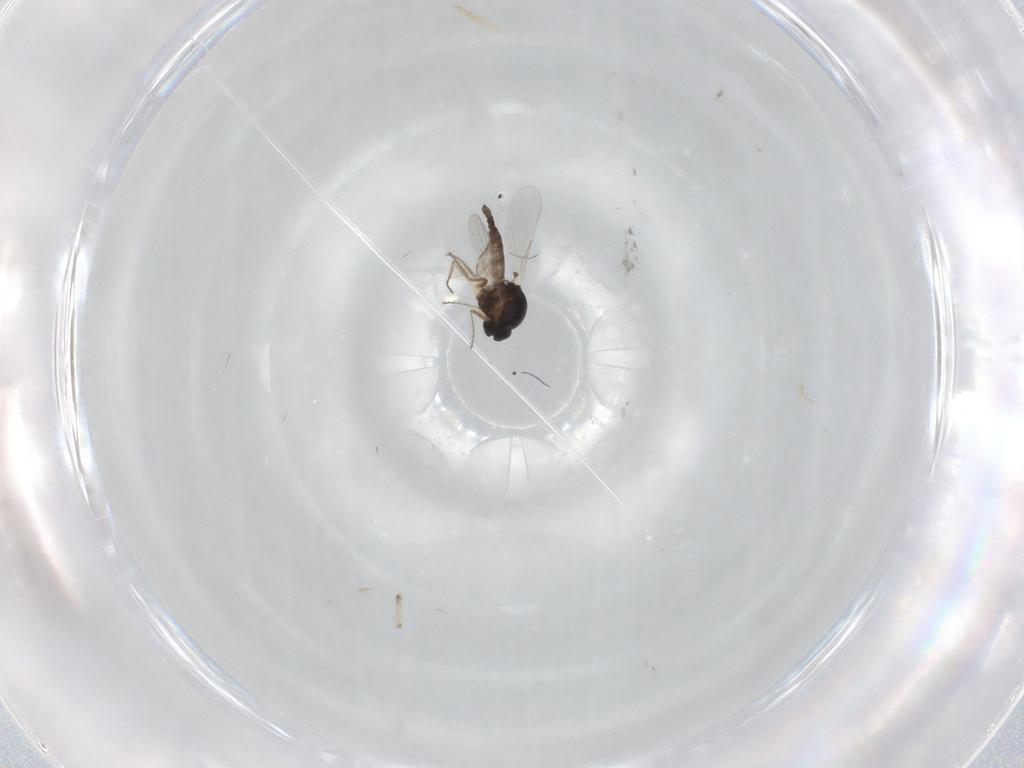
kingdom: Animalia
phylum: Arthropoda
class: Insecta
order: Diptera
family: Ceratopogonidae
